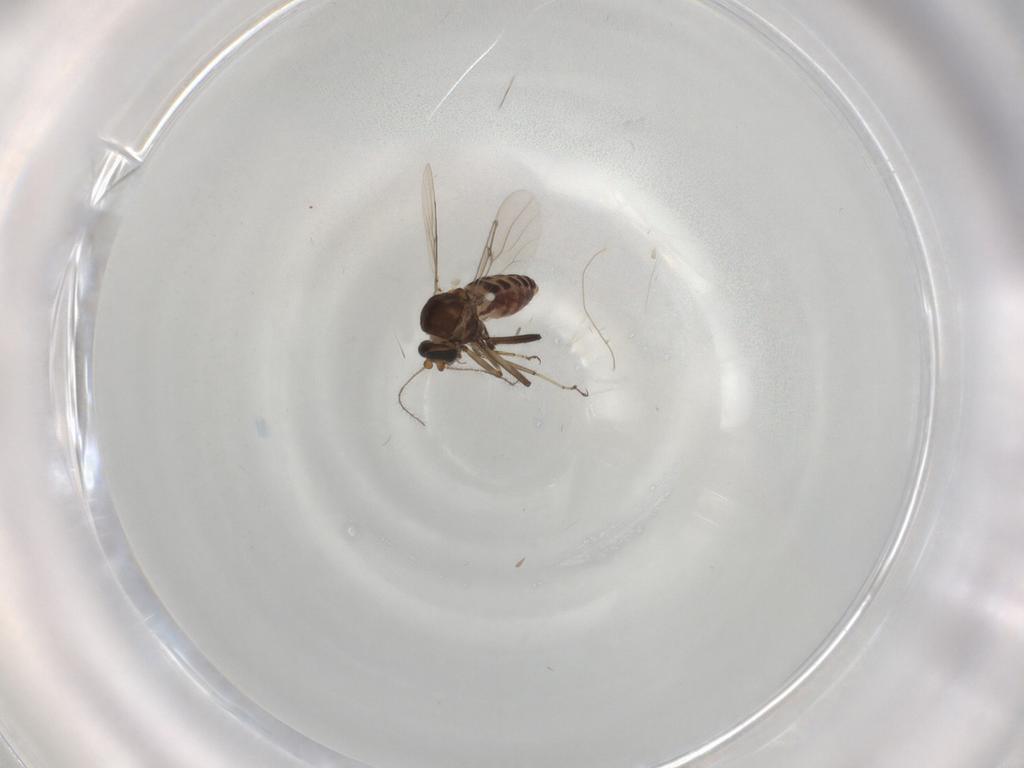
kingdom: Animalia
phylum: Arthropoda
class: Insecta
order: Diptera
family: Ceratopogonidae
